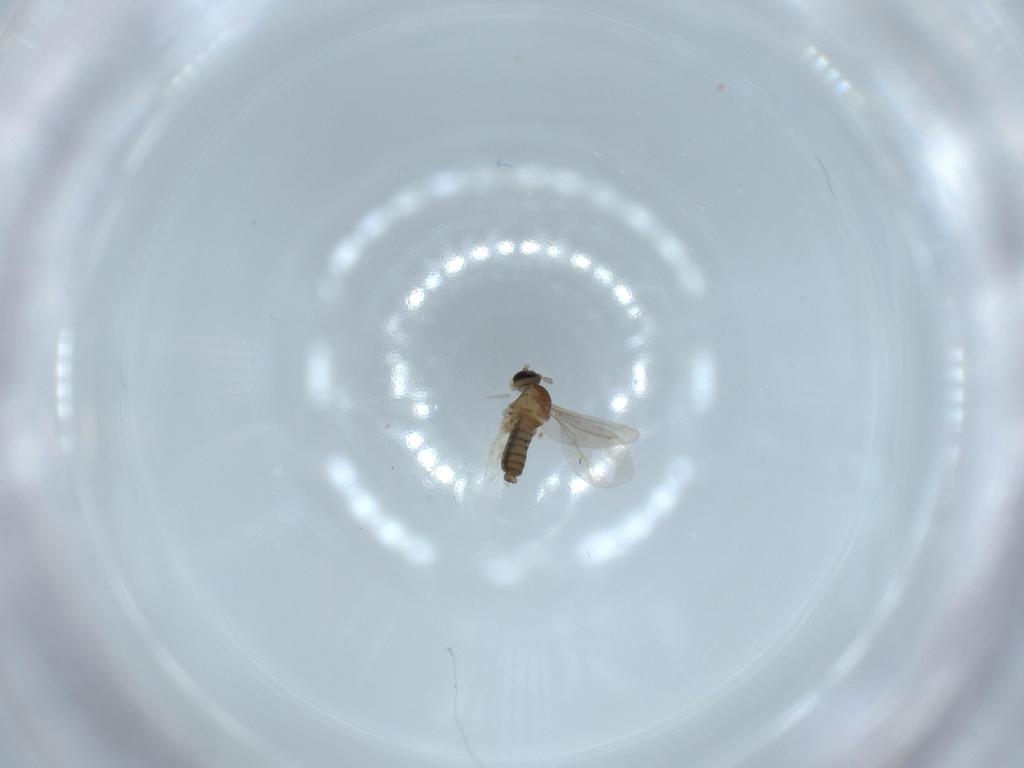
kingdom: Animalia
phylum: Arthropoda
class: Insecta
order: Diptera
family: Cecidomyiidae
